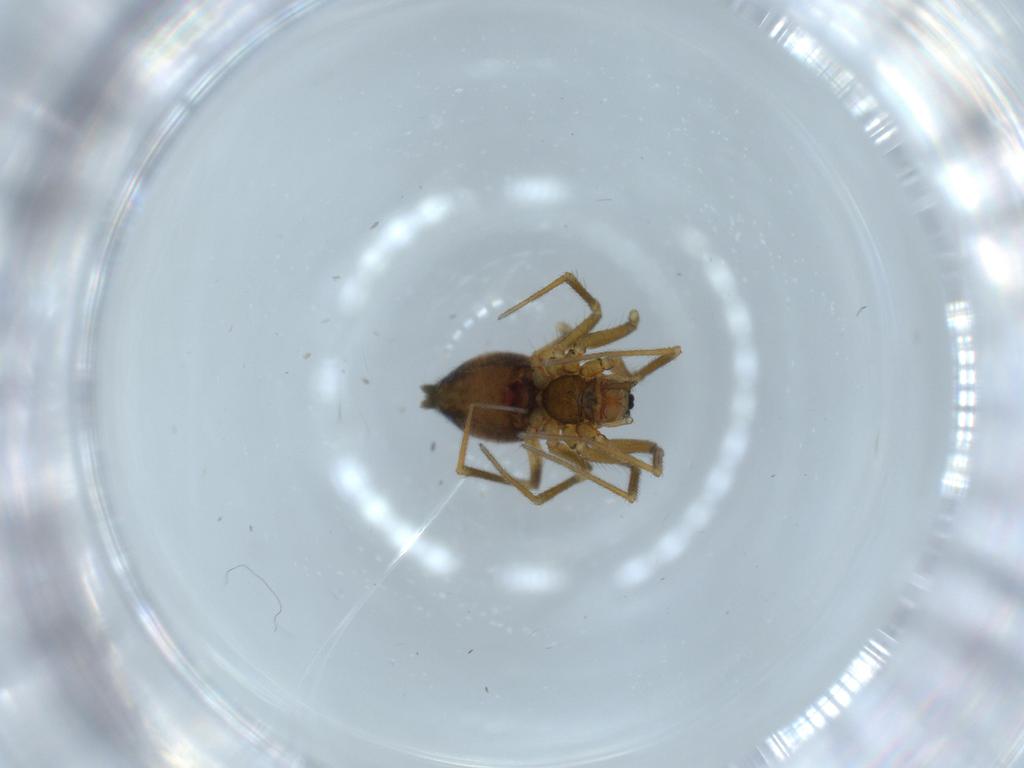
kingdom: Animalia
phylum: Arthropoda
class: Arachnida
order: Araneae
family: Linyphiidae
